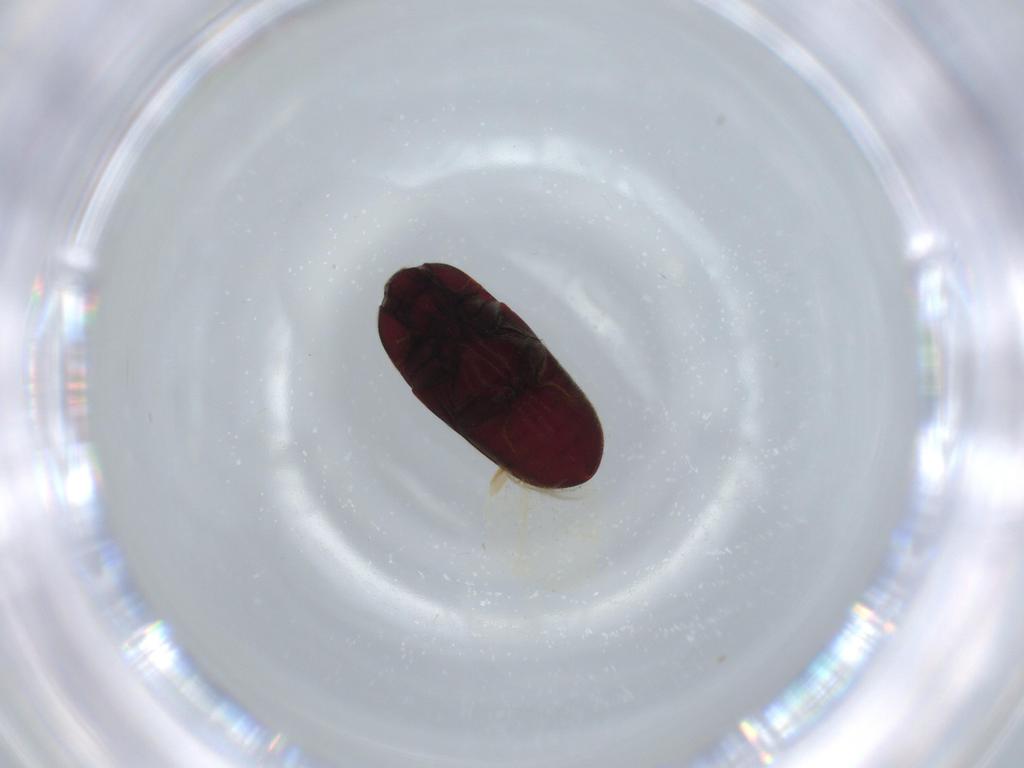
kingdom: Animalia
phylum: Arthropoda
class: Insecta
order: Coleoptera
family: Throscidae
